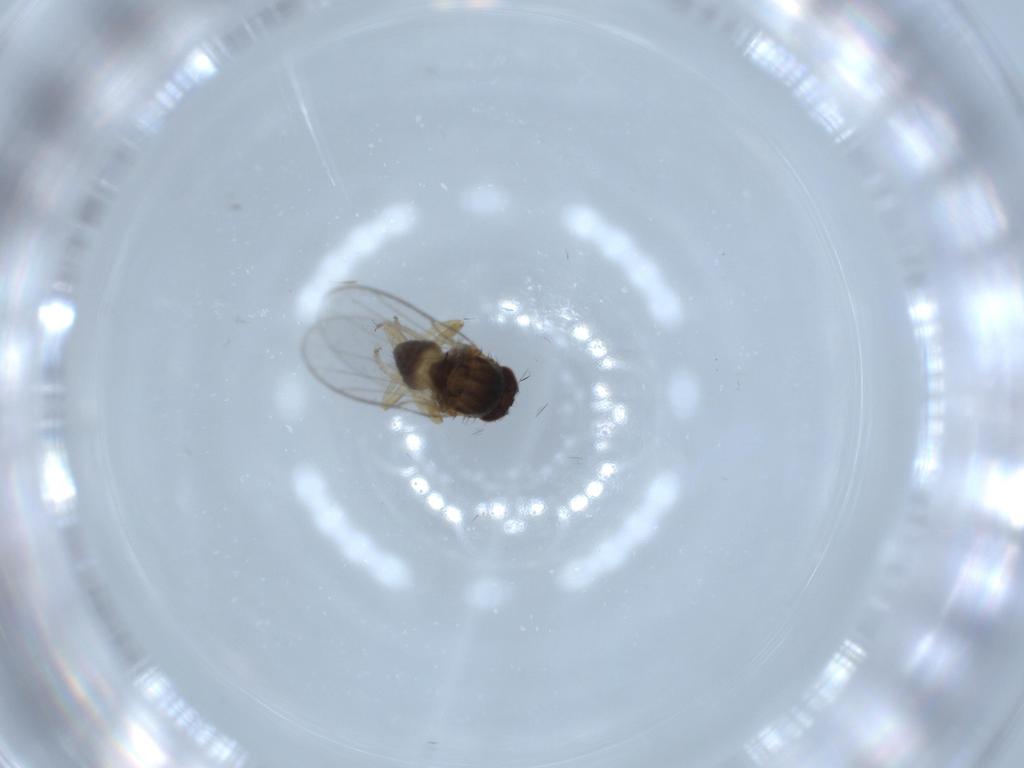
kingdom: Animalia
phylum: Arthropoda
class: Insecta
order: Diptera
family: Chloropidae
